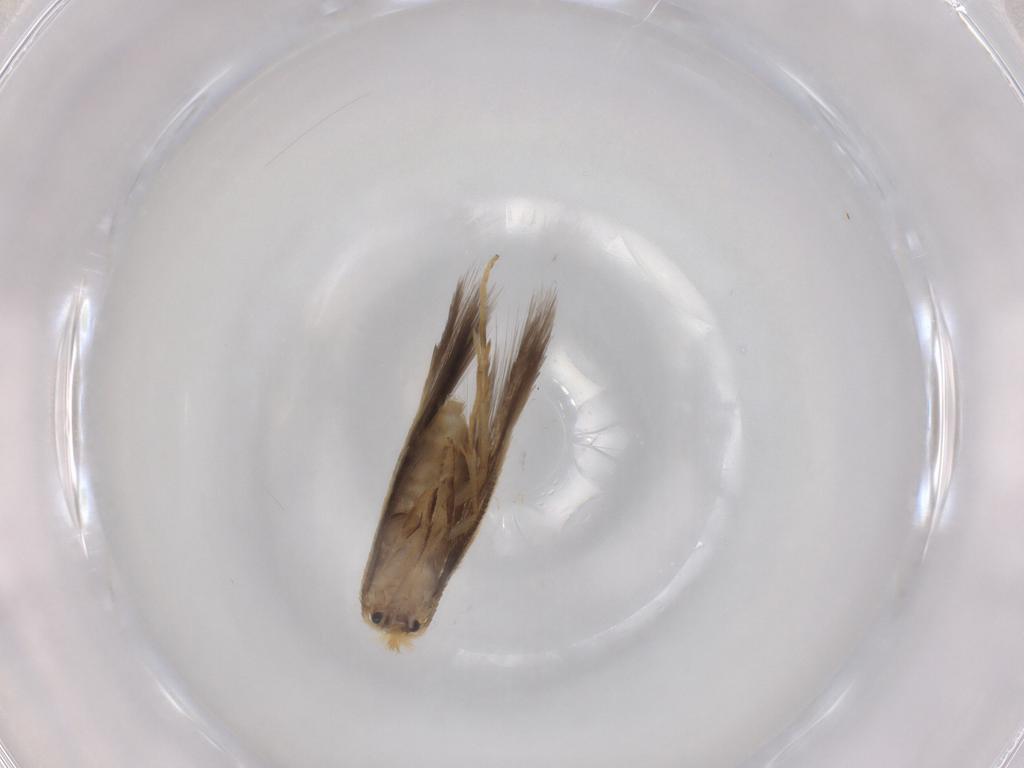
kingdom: Animalia
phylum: Arthropoda
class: Insecta
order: Lepidoptera
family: Nepticulidae
